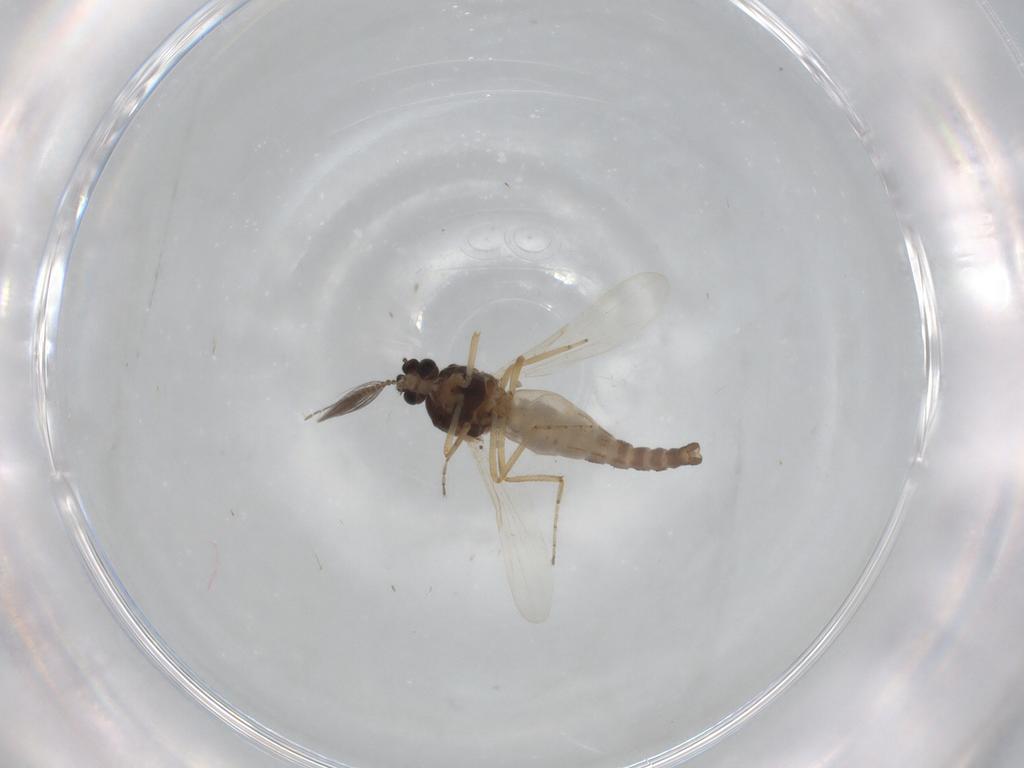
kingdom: Animalia
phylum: Arthropoda
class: Insecta
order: Diptera
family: Ceratopogonidae
